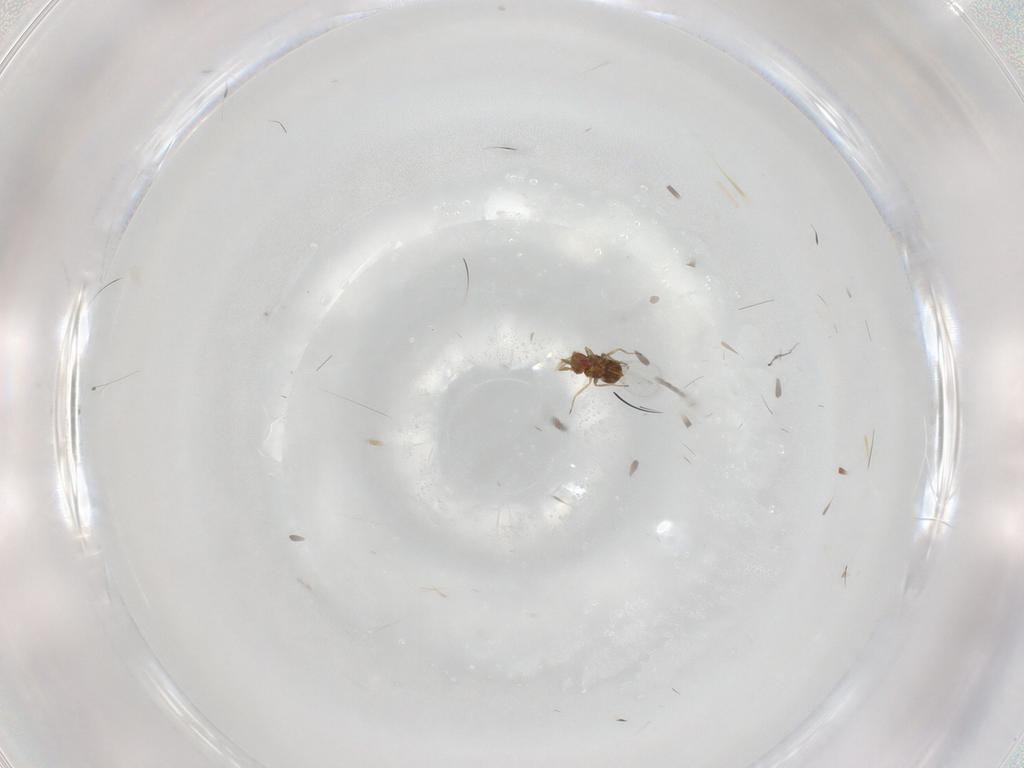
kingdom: Animalia
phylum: Arthropoda
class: Insecta
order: Hymenoptera
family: Trichogrammatidae
